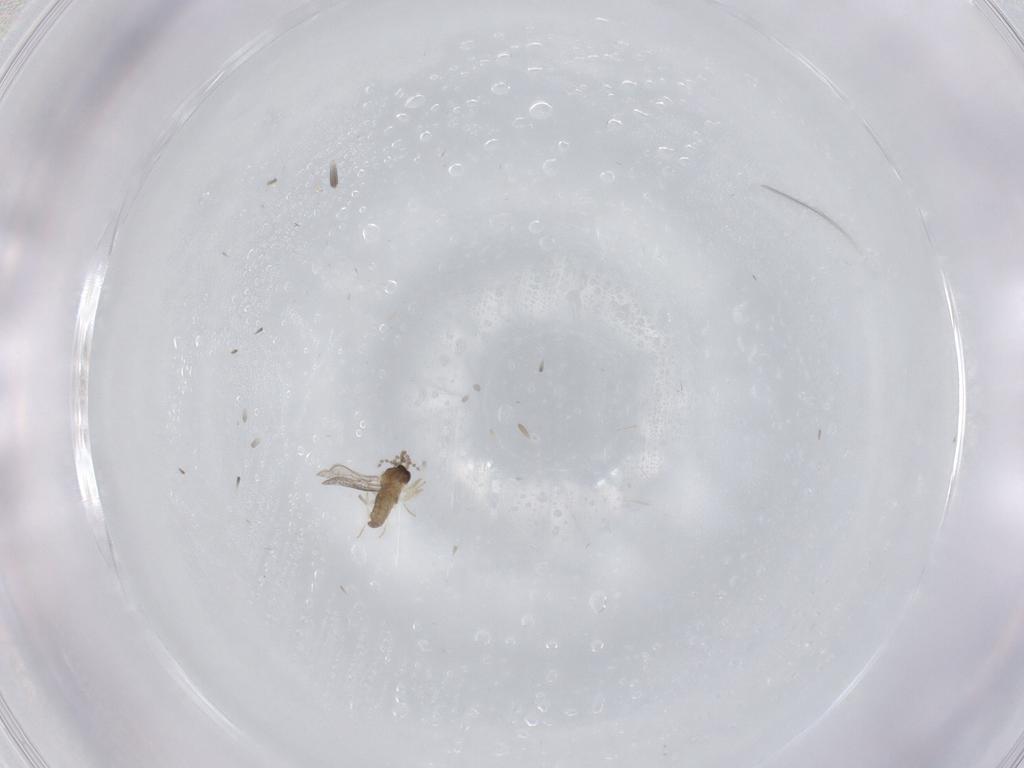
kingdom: Animalia
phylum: Arthropoda
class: Insecta
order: Diptera
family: Cecidomyiidae
